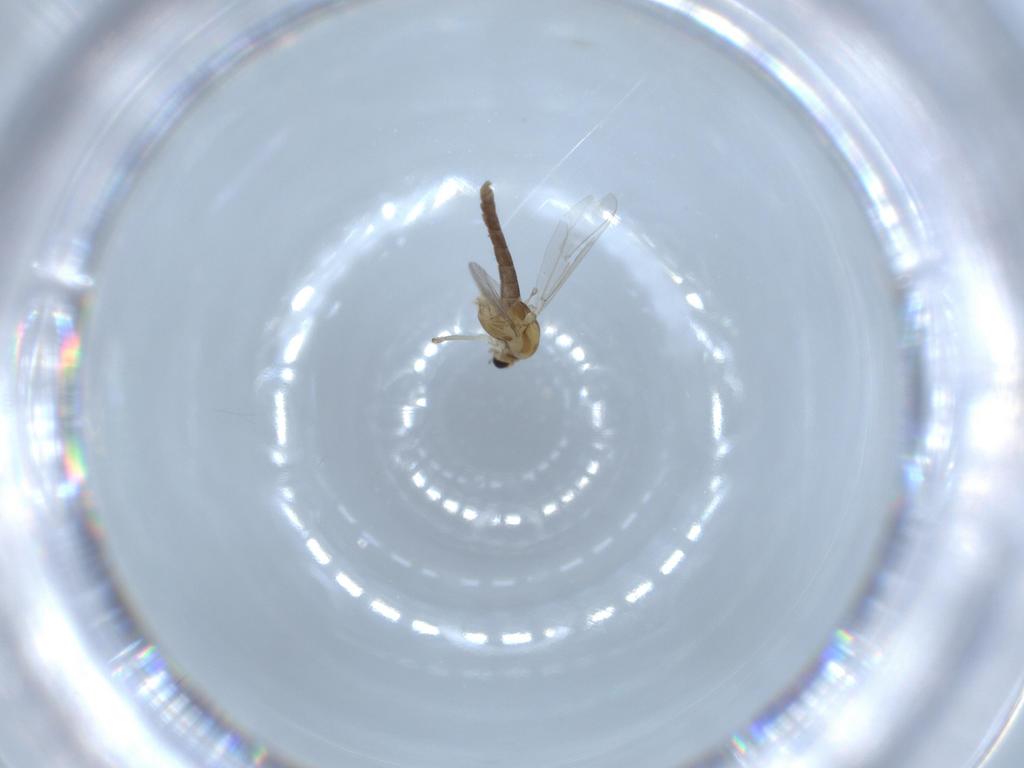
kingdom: Animalia
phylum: Arthropoda
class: Insecta
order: Diptera
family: Chironomidae
